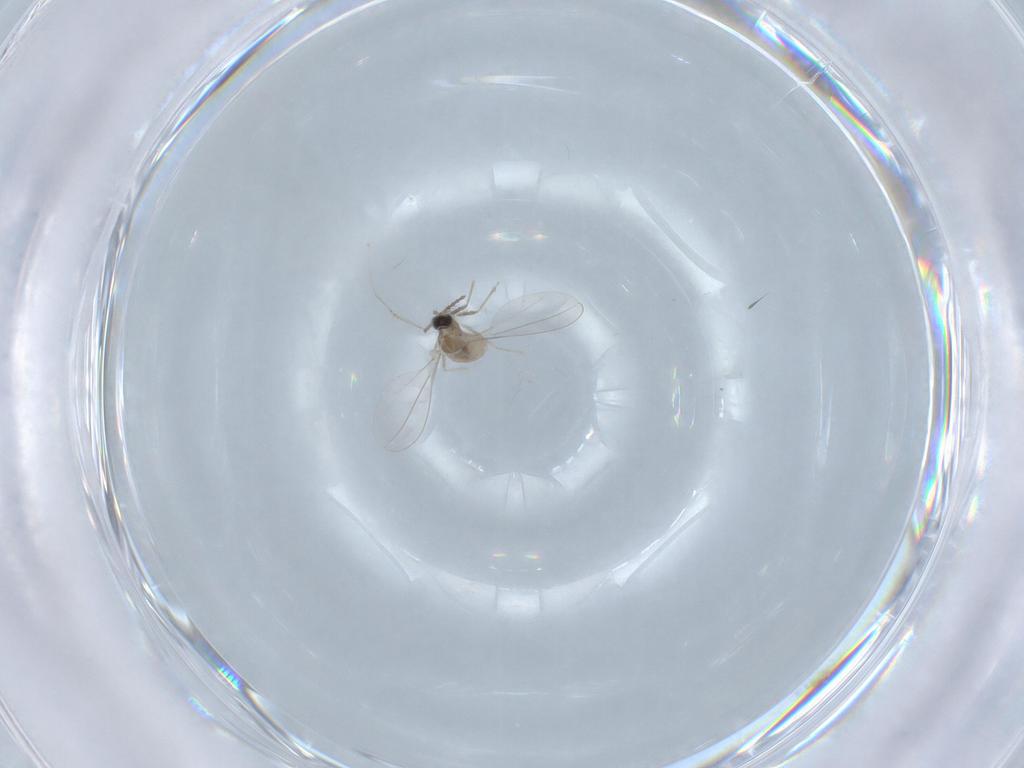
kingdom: Animalia
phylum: Arthropoda
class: Insecta
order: Diptera
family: Cecidomyiidae
